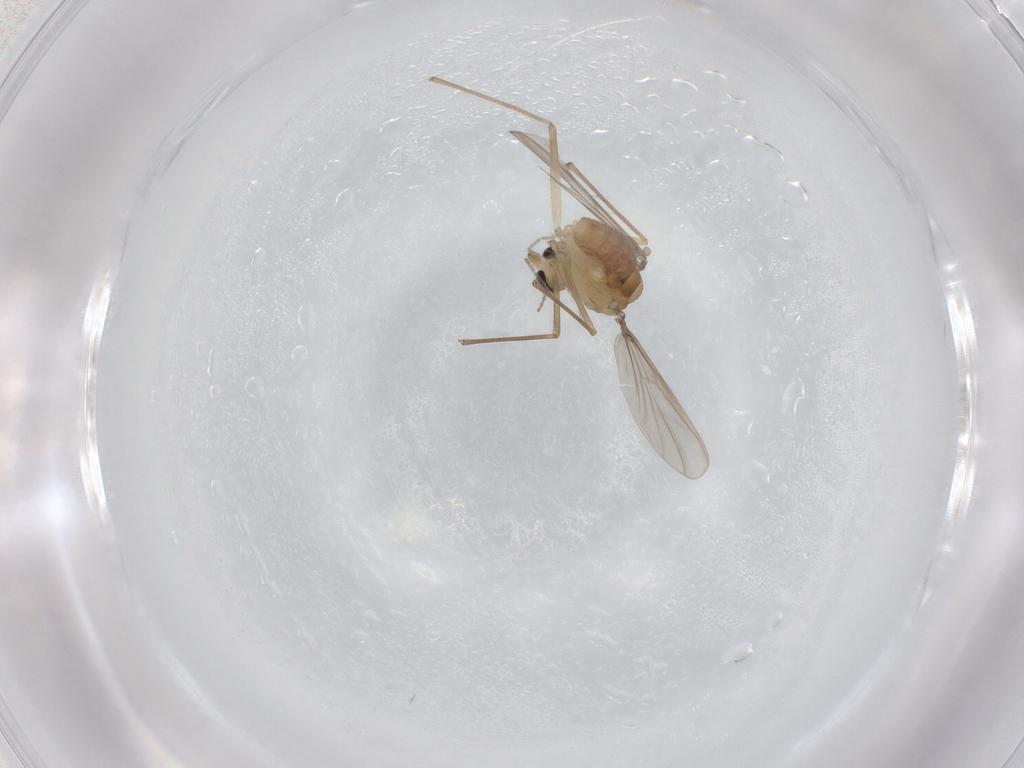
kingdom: Animalia
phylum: Arthropoda
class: Insecta
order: Diptera
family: Chironomidae
